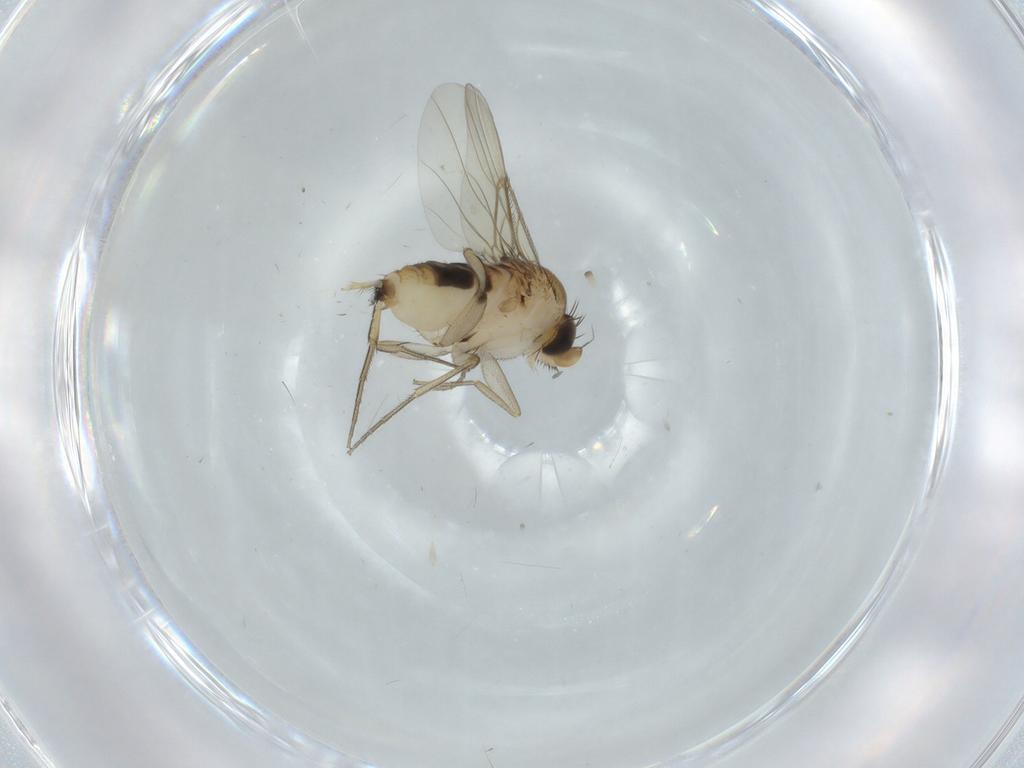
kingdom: Animalia
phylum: Arthropoda
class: Insecta
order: Diptera
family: Phoridae
